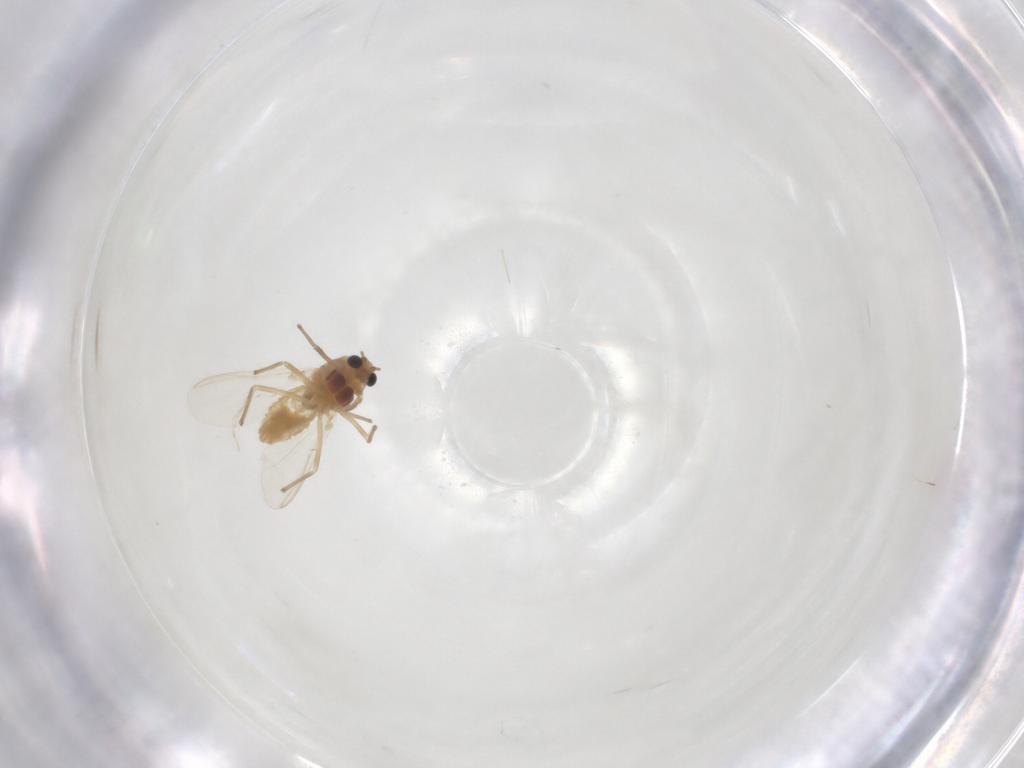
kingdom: Animalia
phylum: Arthropoda
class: Insecta
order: Diptera
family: Chironomidae
